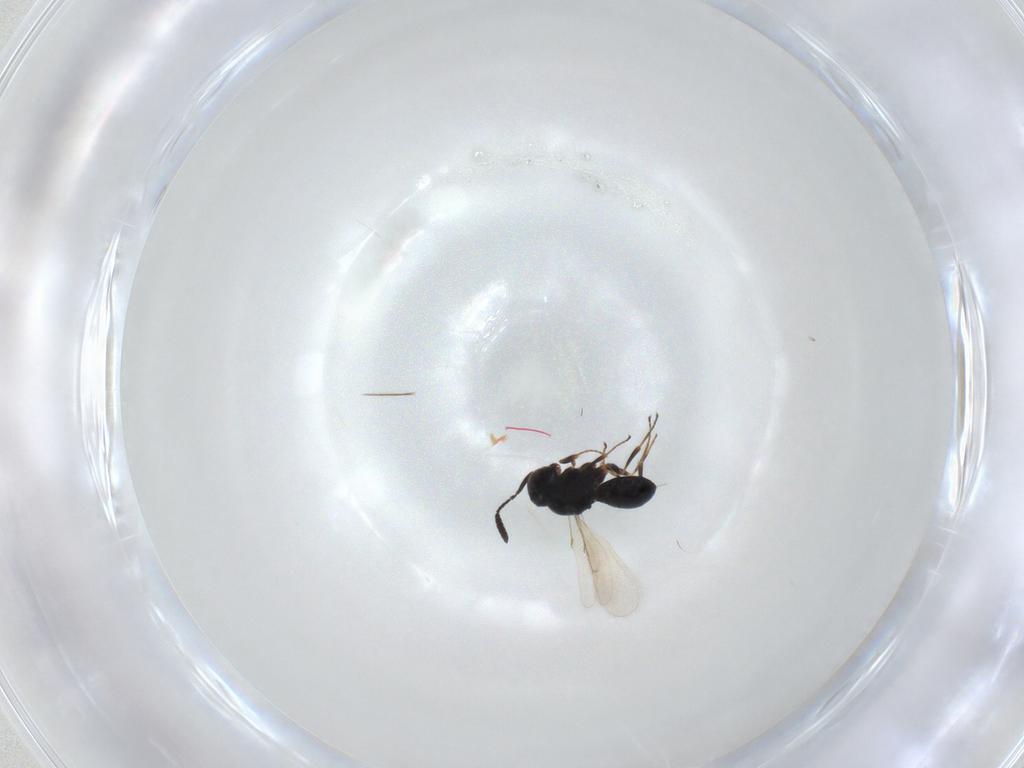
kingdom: Animalia
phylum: Arthropoda
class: Insecta
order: Hymenoptera
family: Scelionidae
